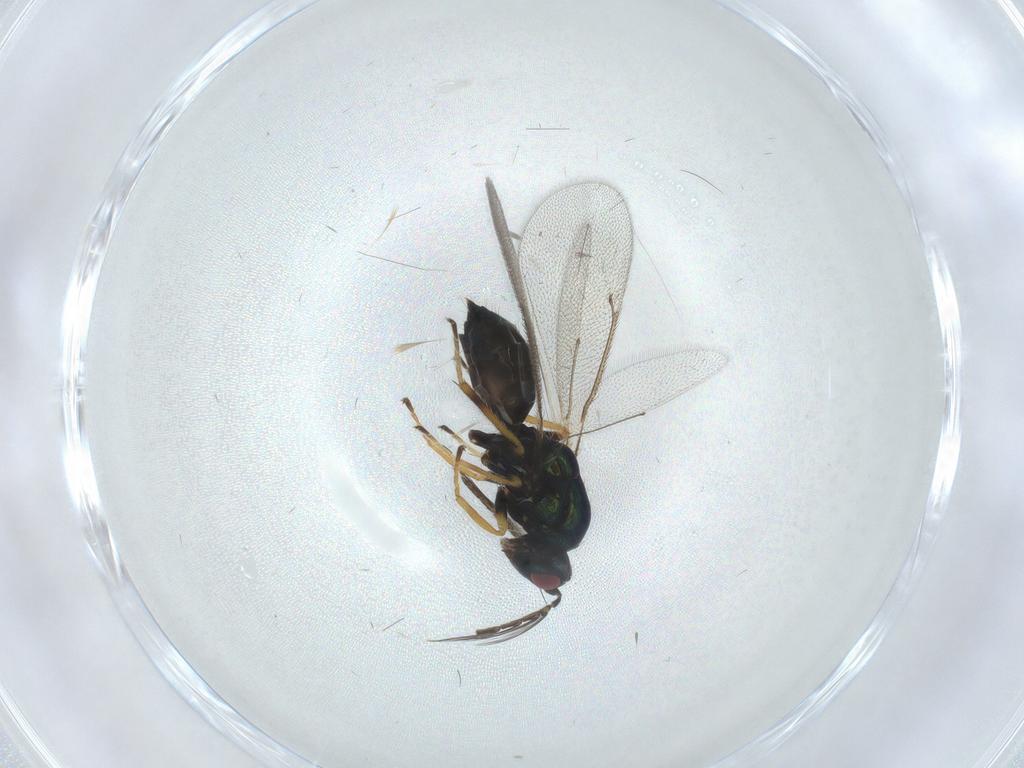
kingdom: Animalia
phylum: Arthropoda
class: Insecta
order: Hymenoptera
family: Eulophidae
